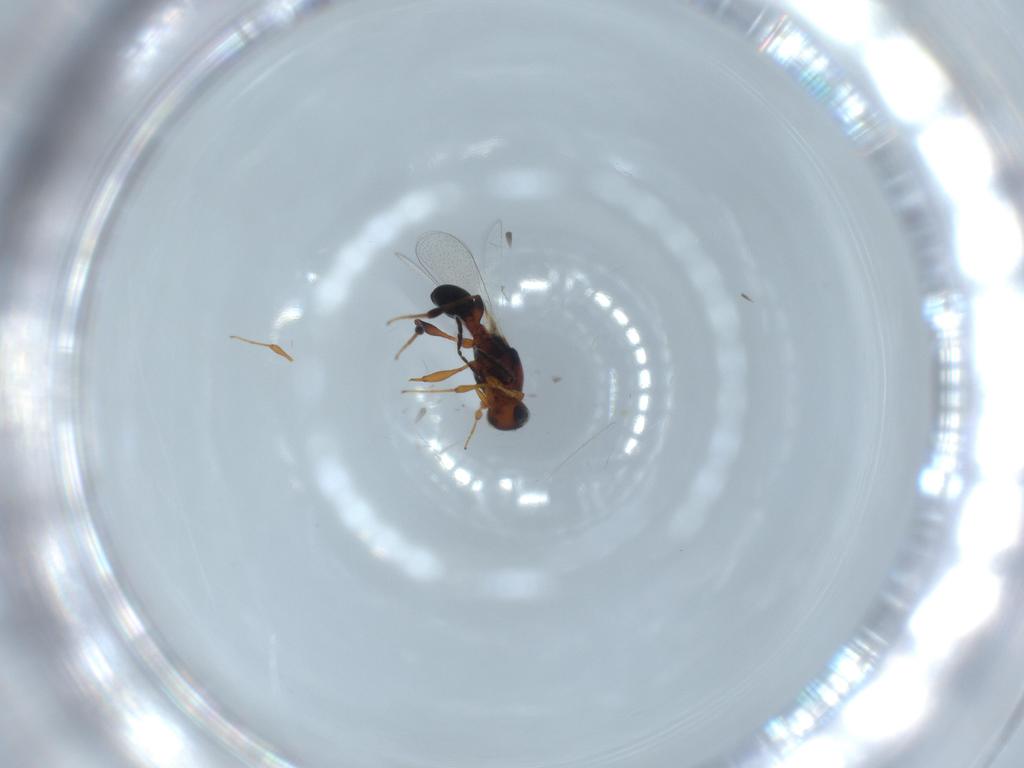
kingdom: Animalia
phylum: Arthropoda
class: Insecta
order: Hymenoptera
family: Platygastridae
